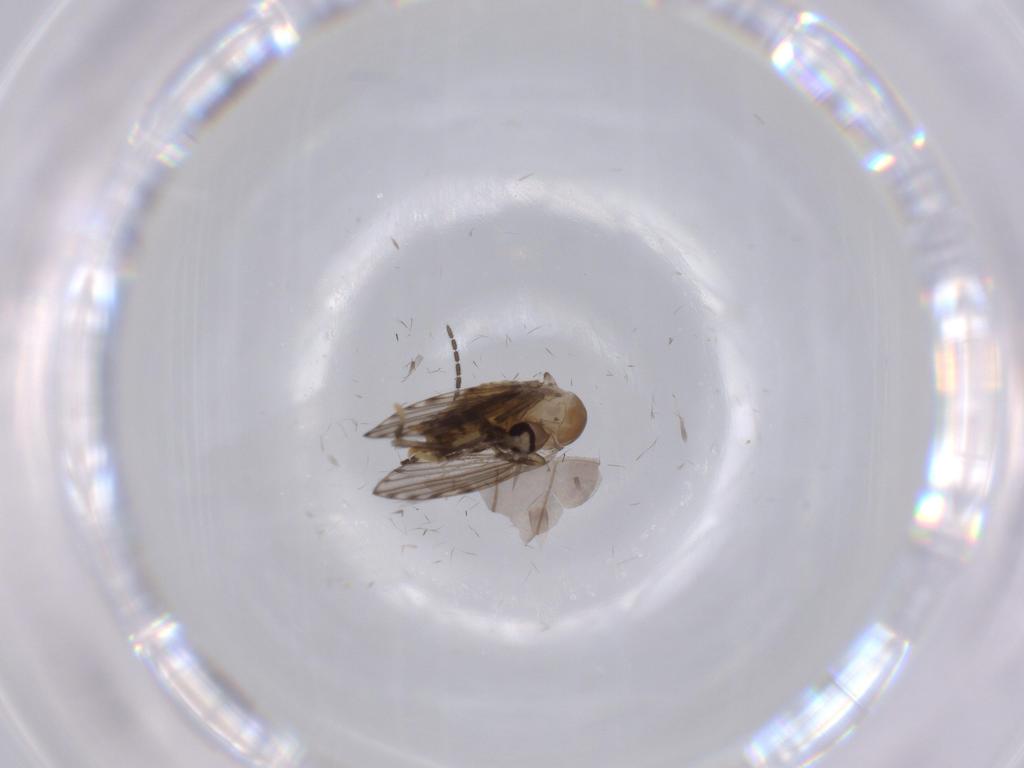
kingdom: Animalia
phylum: Arthropoda
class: Insecta
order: Diptera
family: Psychodidae
